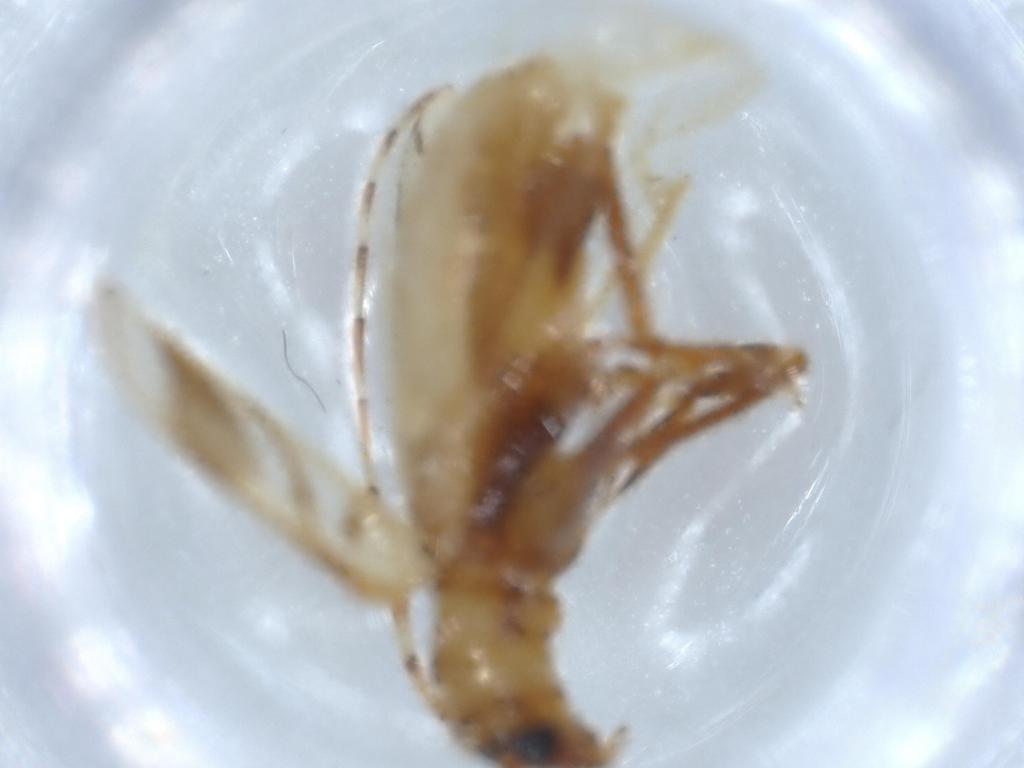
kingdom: Animalia
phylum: Arthropoda
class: Insecta
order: Coleoptera
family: Cerambycidae
